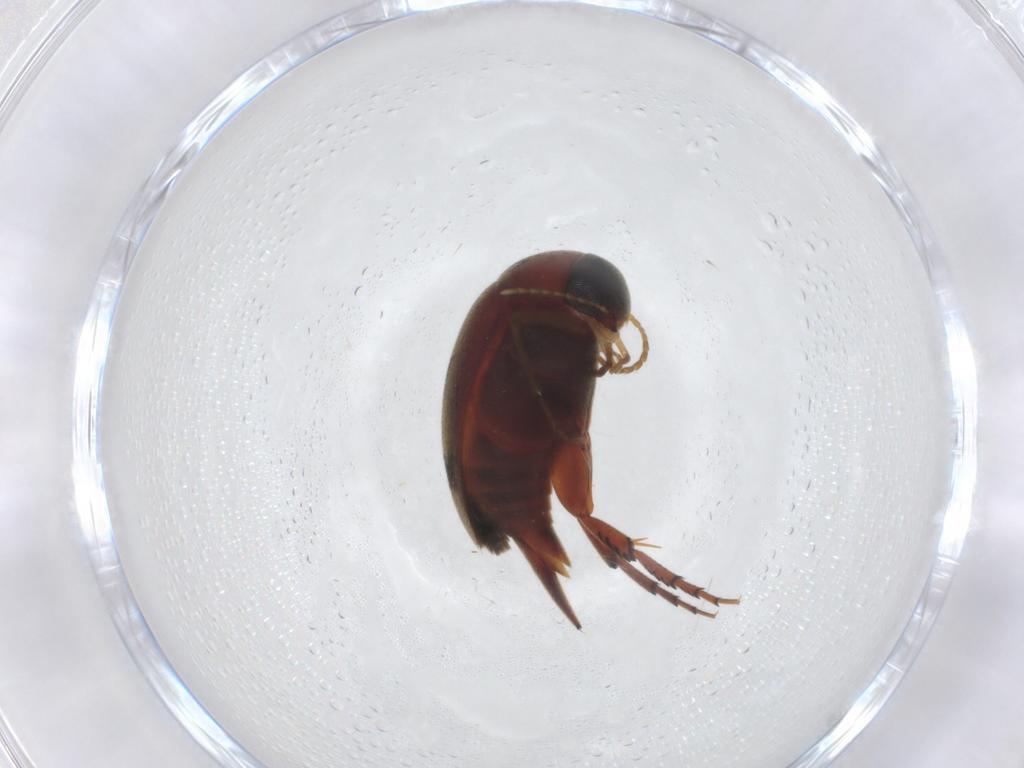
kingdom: Animalia
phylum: Arthropoda
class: Insecta
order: Coleoptera
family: Mordellidae
